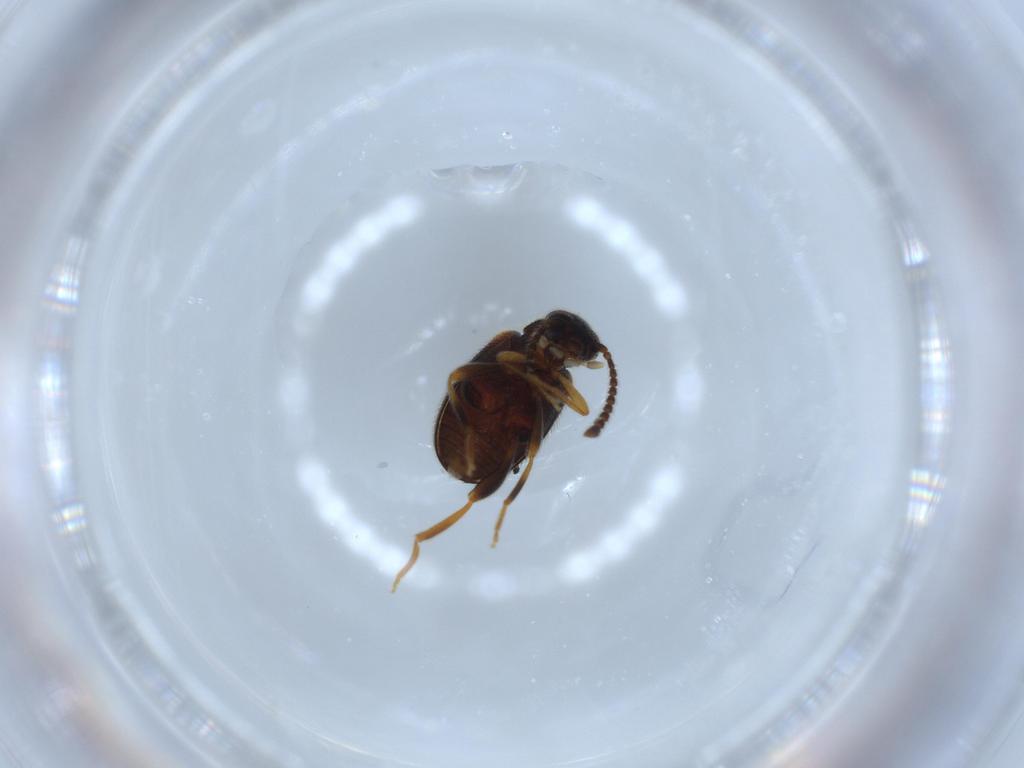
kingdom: Animalia
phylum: Arthropoda
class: Insecta
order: Coleoptera
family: Aderidae
